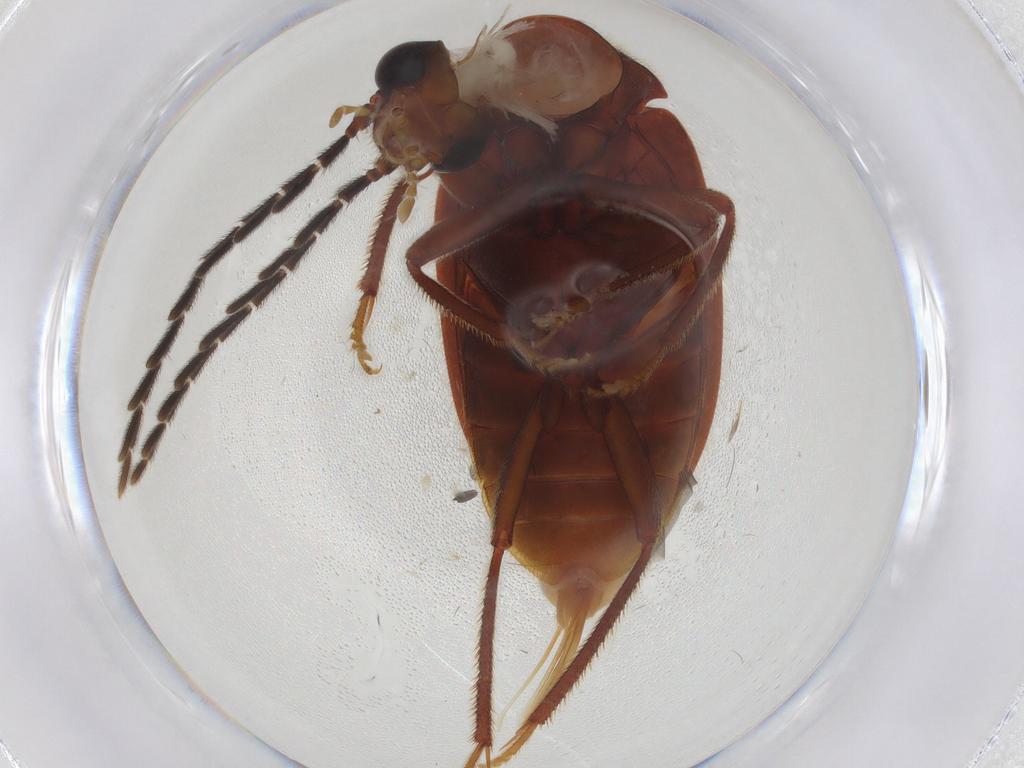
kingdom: Animalia
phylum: Arthropoda
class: Insecta
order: Coleoptera
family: Ptilodactylidae
